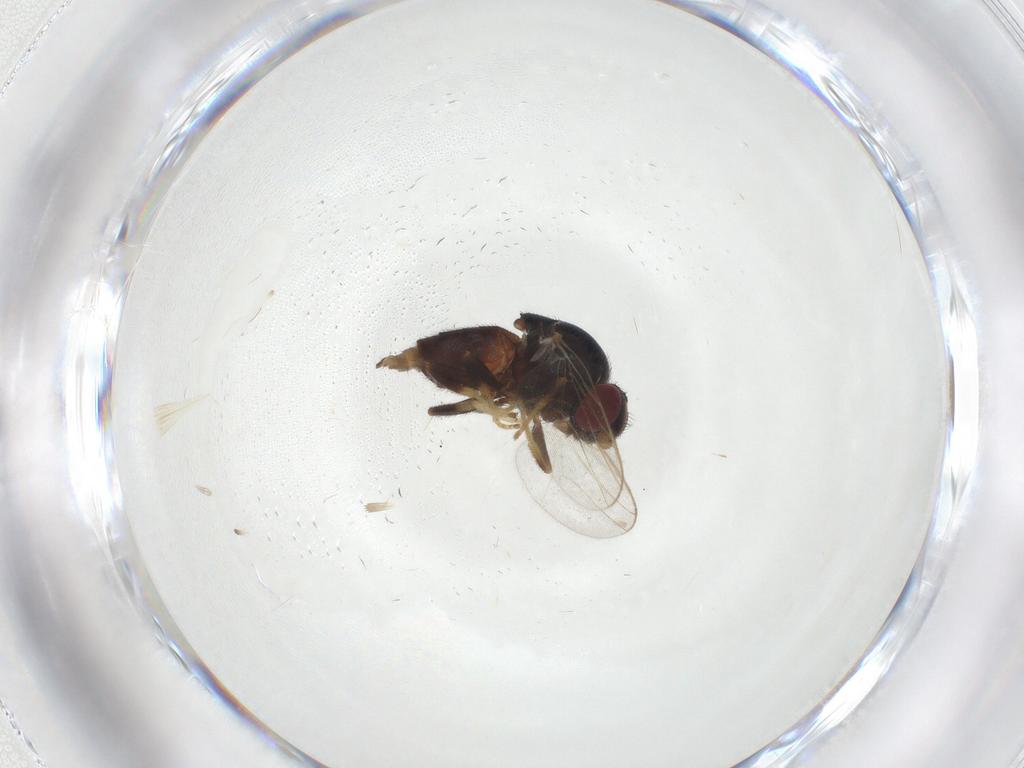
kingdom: Animalia
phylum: Arthropoda
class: Insecta
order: Diptera
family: Chloropidae
